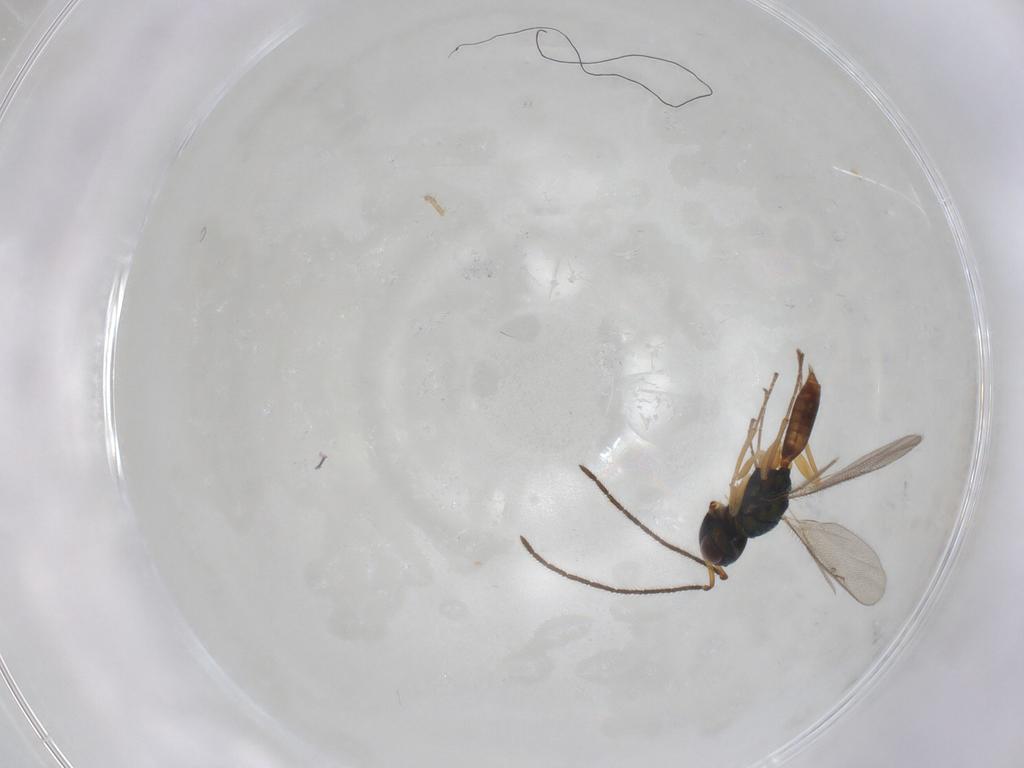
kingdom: Animalia
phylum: Arthropoda
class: Insecta
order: Hymenoptera
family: Pteromalidae
